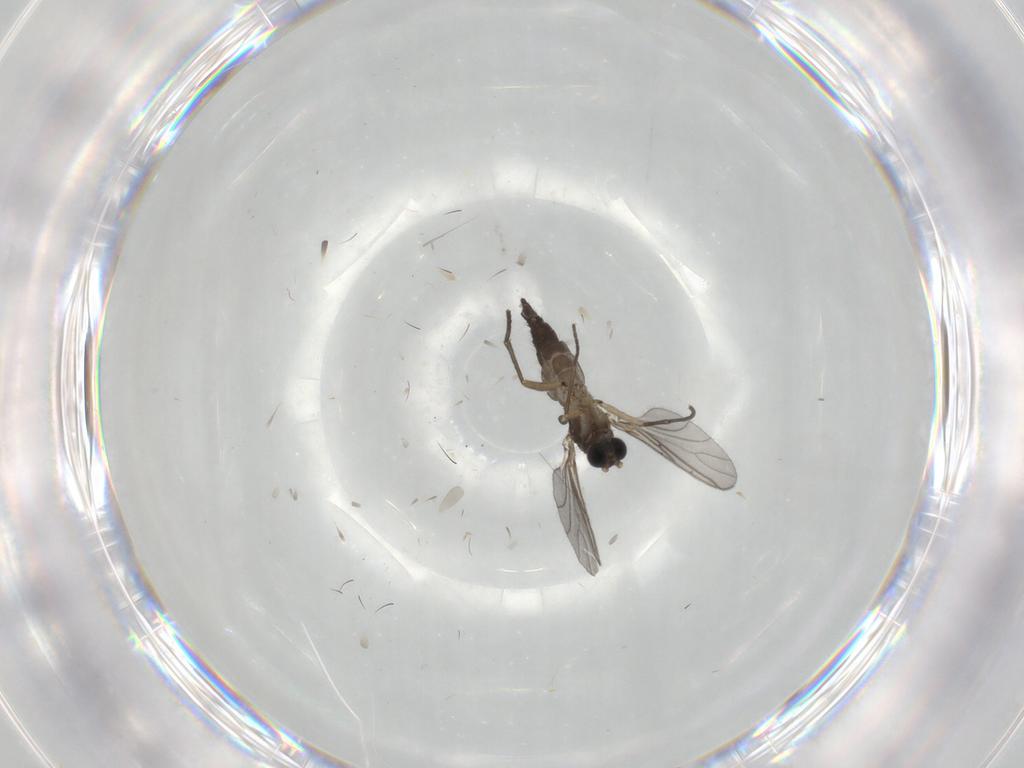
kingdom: Animalia
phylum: Arthropoda
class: Insecta
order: Diptera
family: Sciaridae
